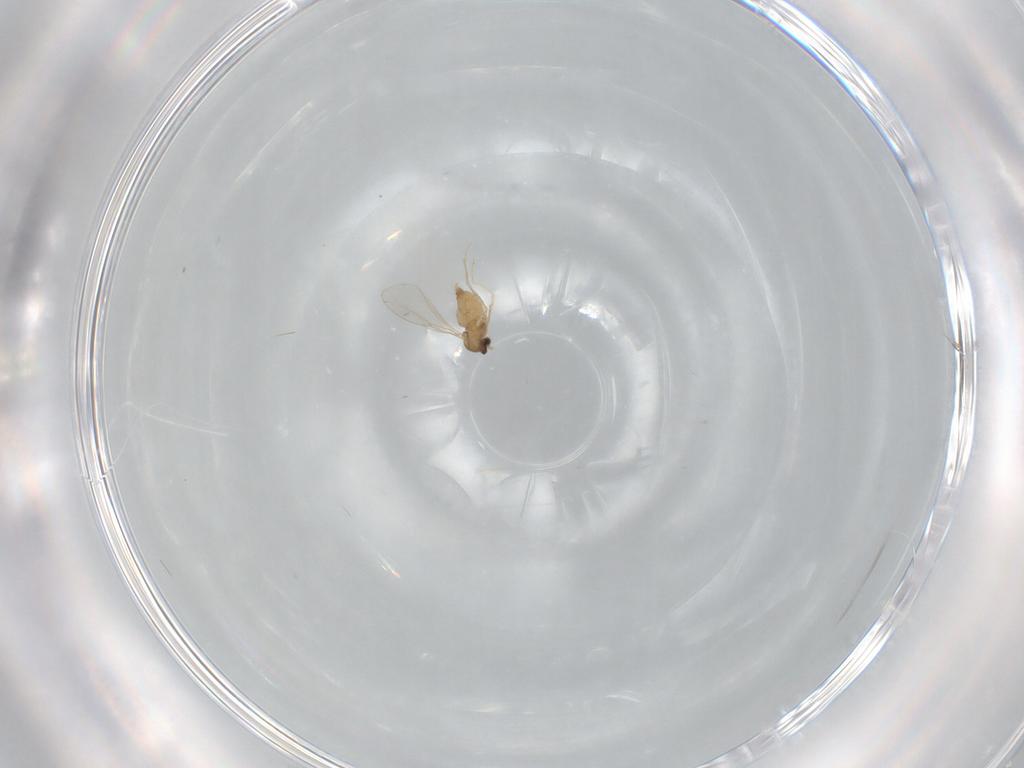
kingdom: Animalia
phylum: Arthropoda
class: Insecta
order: Diptera
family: Cecidomyiidae
